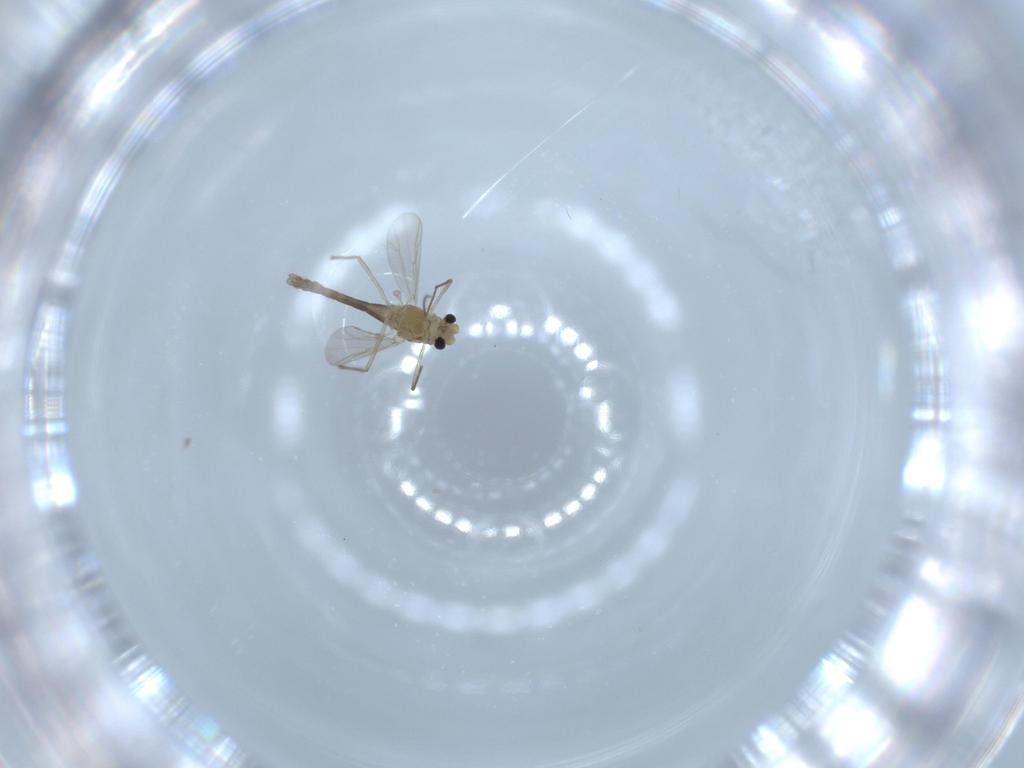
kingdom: Animalia
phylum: Arthropoda
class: Insecta
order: Diptera
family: Chironomidae
